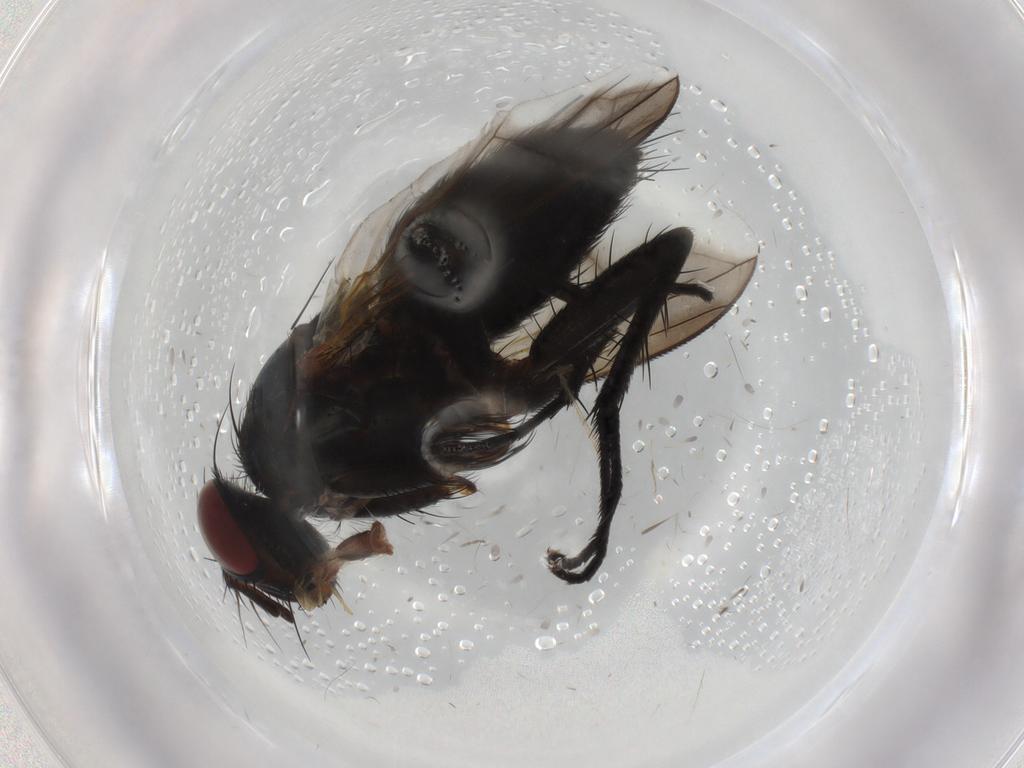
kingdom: Animalia
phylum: Arthropoda
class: Insecta
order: Diptera
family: Tachinidae
